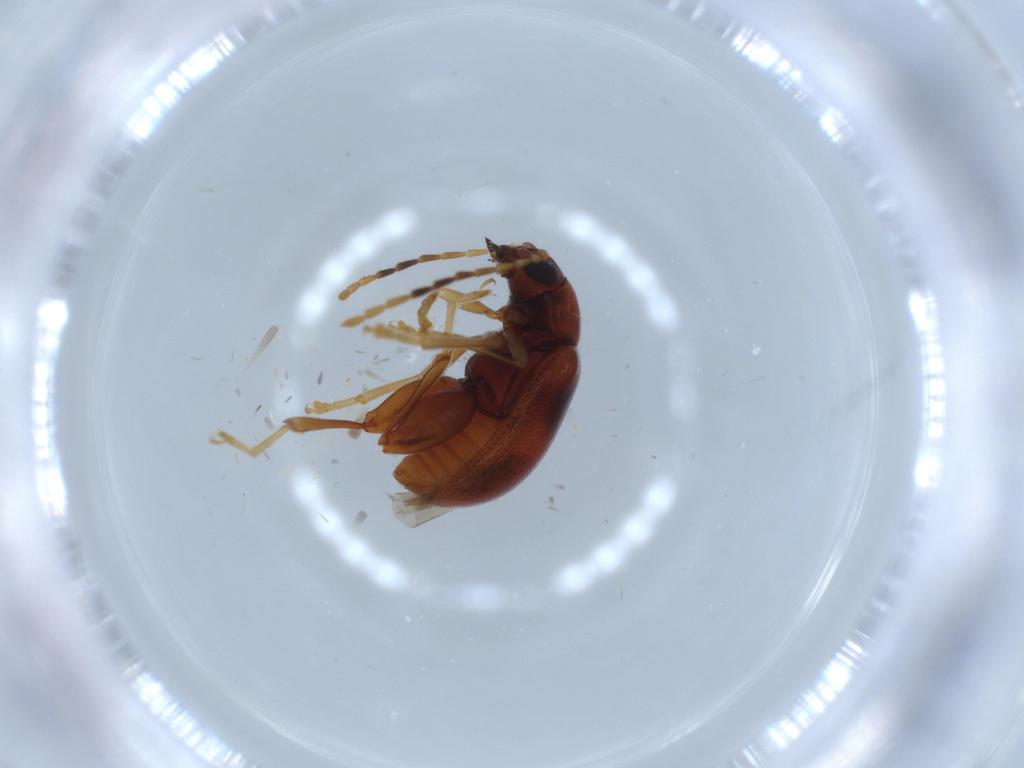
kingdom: Animalia
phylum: Arthropoda
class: Insecta
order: Coleoptera
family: Chrysomelidae
